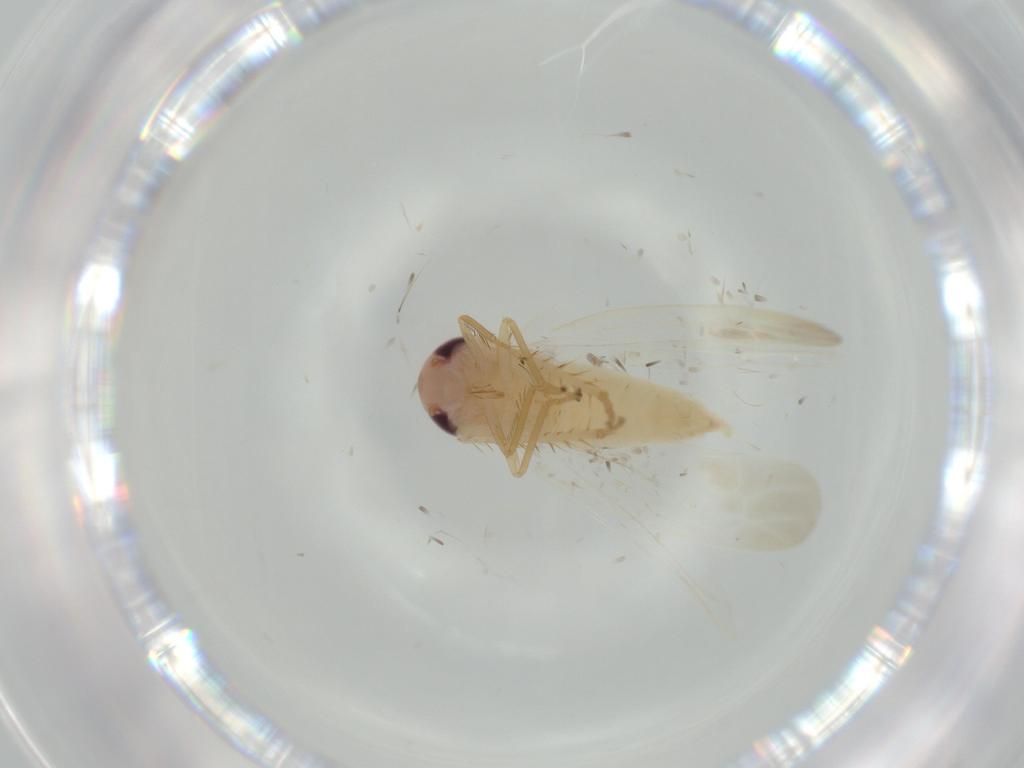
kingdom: Animalia
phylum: Arthropoda
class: Insecta
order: Hemiptera
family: Cicadellidae
